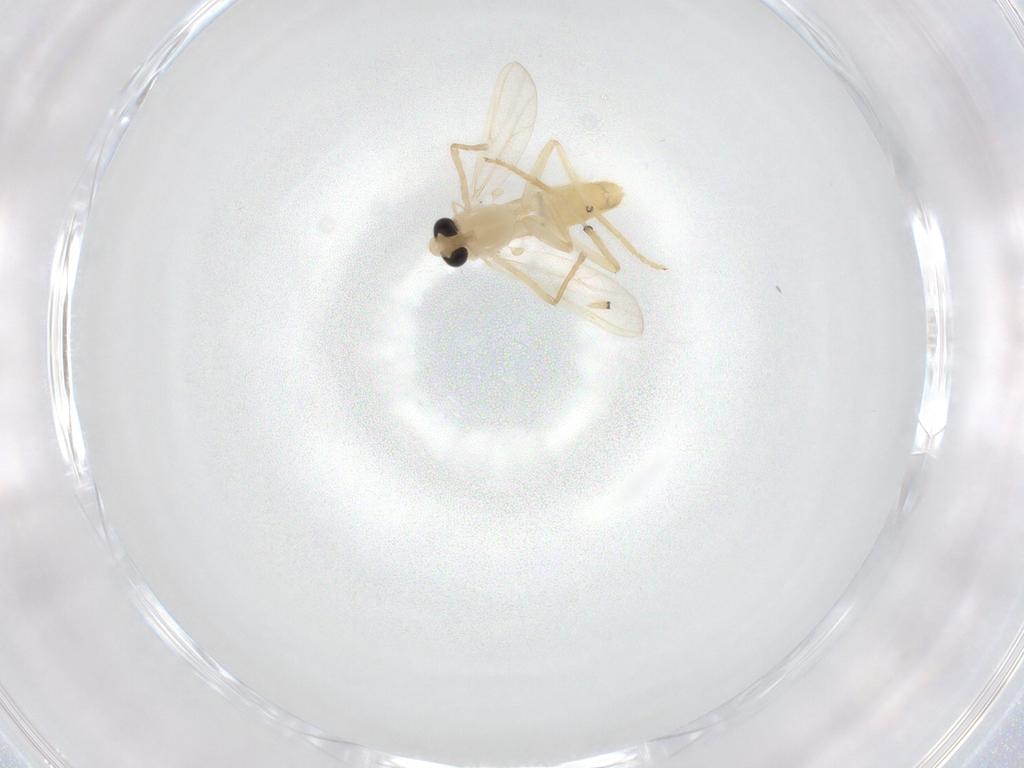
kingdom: Animalia
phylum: Arthropoda
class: Insecta
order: Diptera
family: Chironomidae
